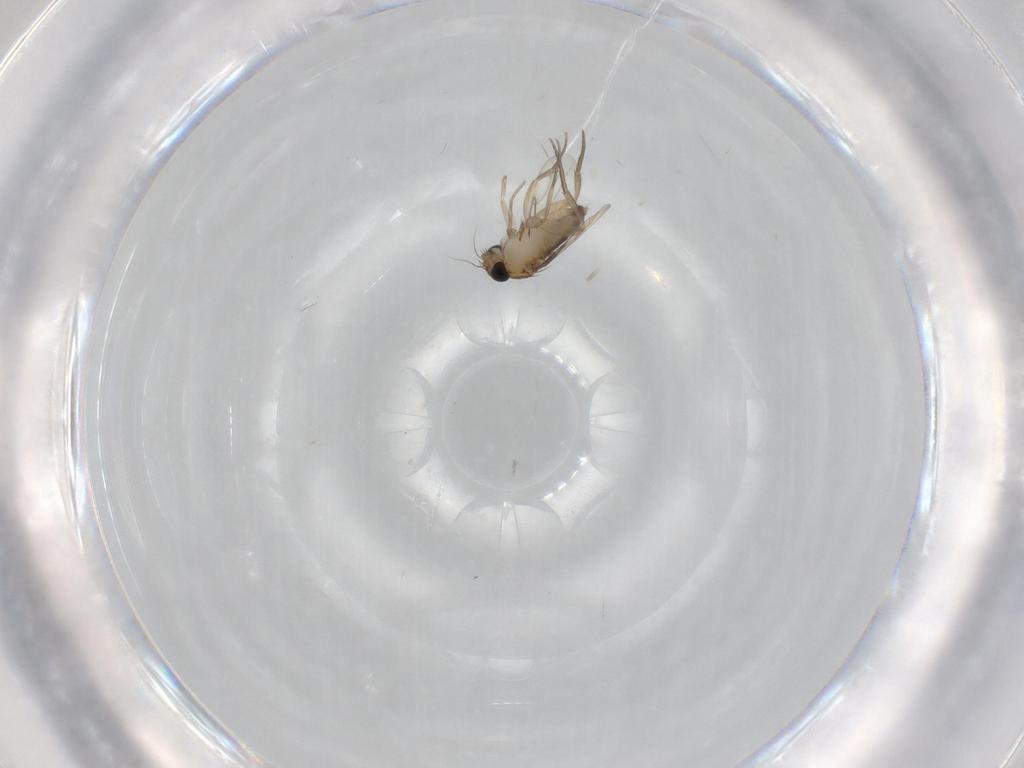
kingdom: Animalia
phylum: Arthropoda
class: Insecta
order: Diptera
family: Phoridae
